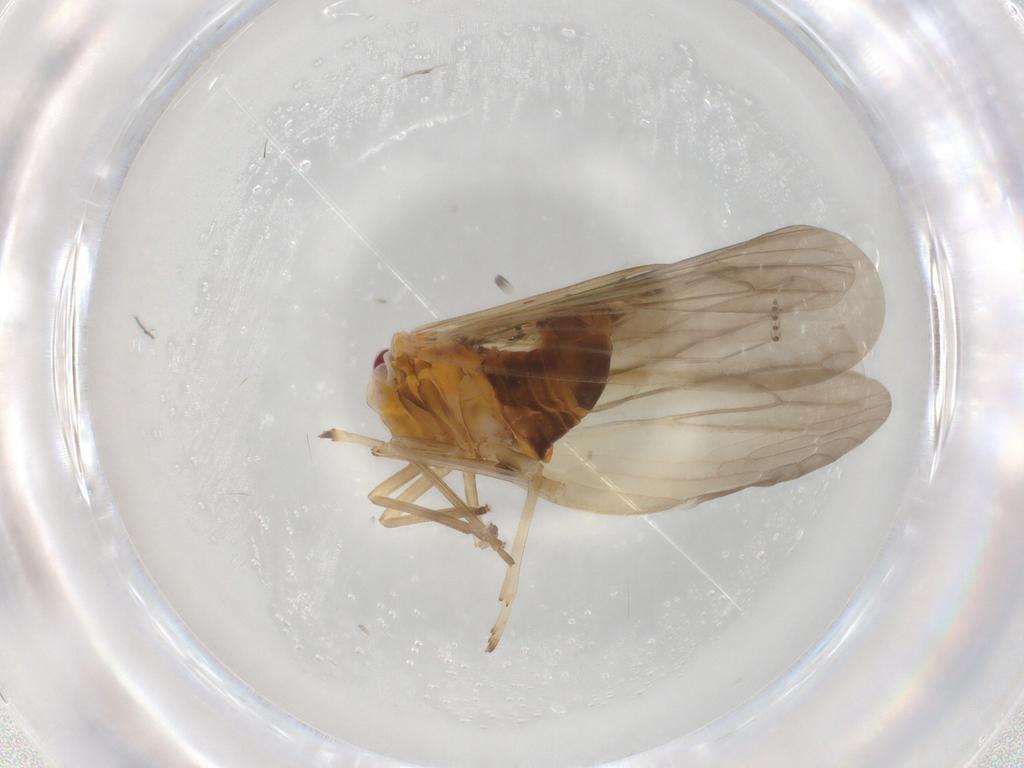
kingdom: Animalia
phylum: Arthropoda
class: Insecta
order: Hemiptera
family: Derbidae
